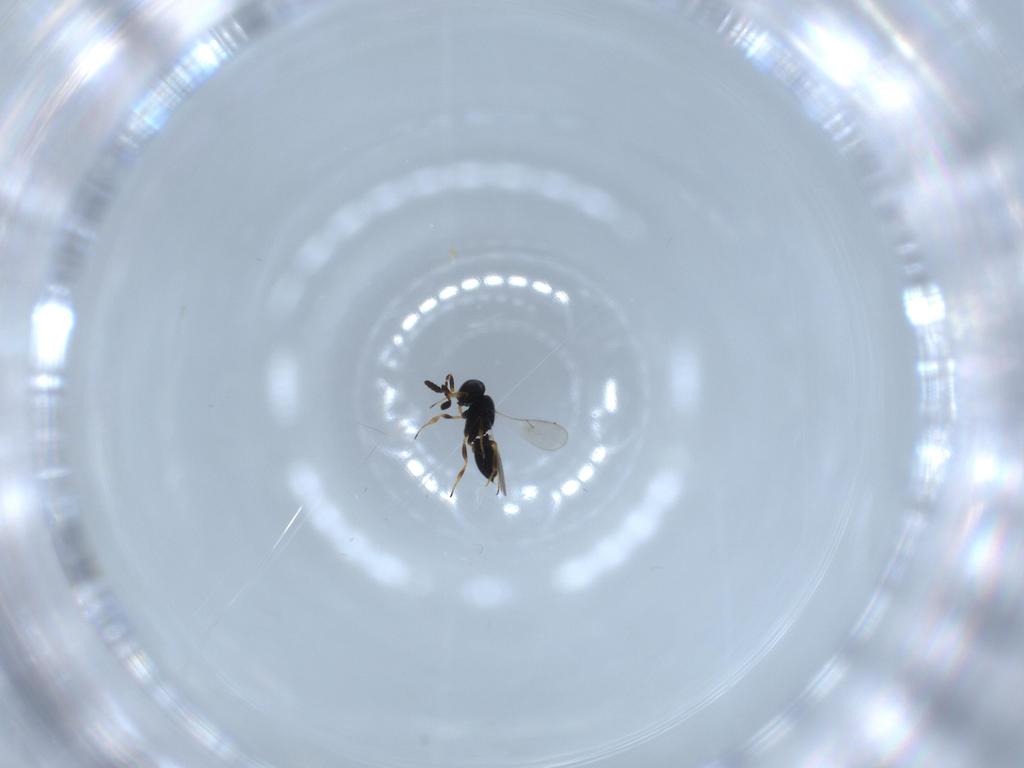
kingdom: Animalia
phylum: Arthropoda
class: Insecta
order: Hymenoptera
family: Scelionidae
